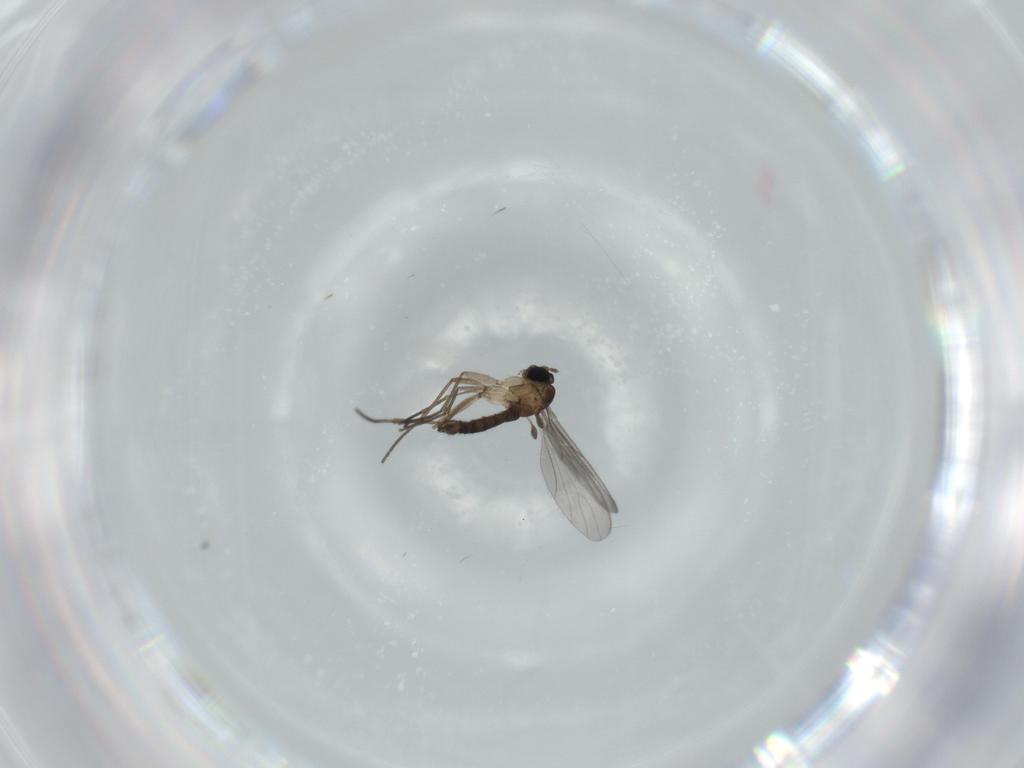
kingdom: Animalia
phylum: Arthropoda
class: Insecta
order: Diptera
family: Sciaridae
